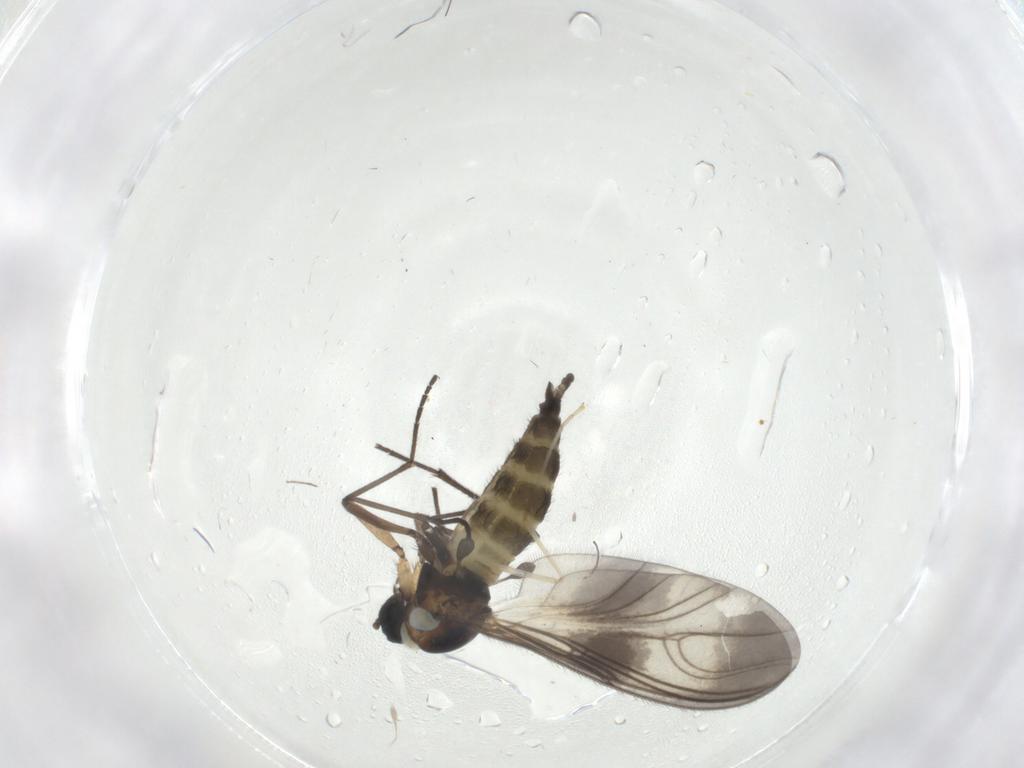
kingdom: Animalia
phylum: Arthropoda
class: Insecta
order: Diptera
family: Sciaridae
